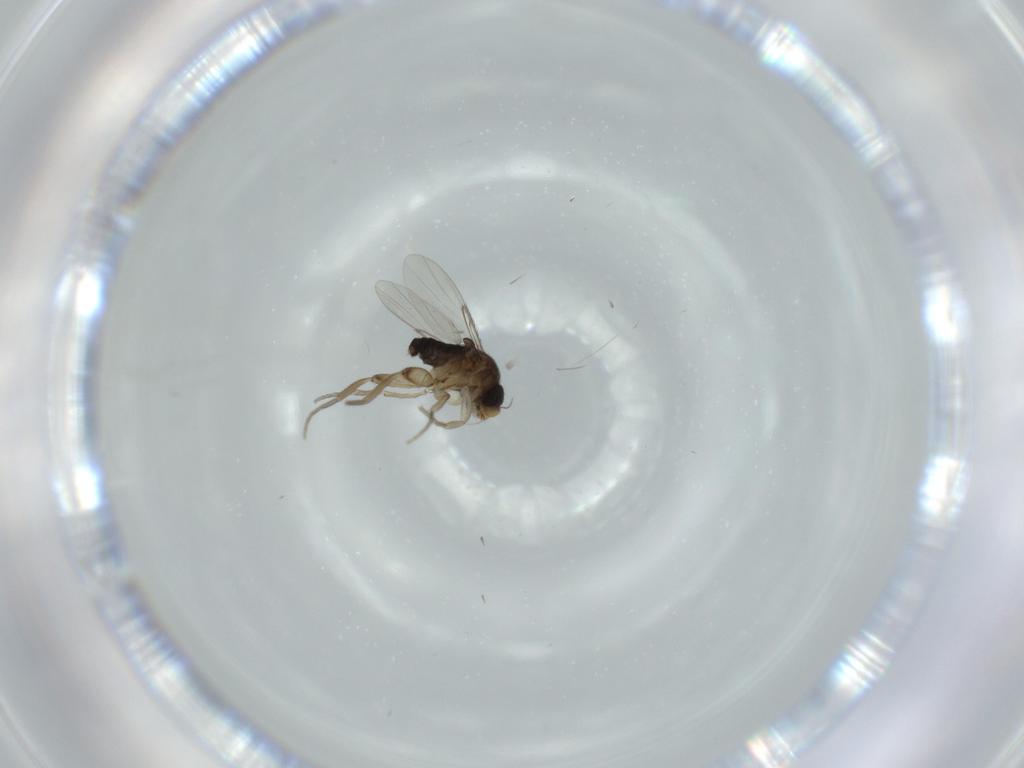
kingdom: Animalia
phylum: Arthropoda
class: Insecta
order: Diptera
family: Phoridae
